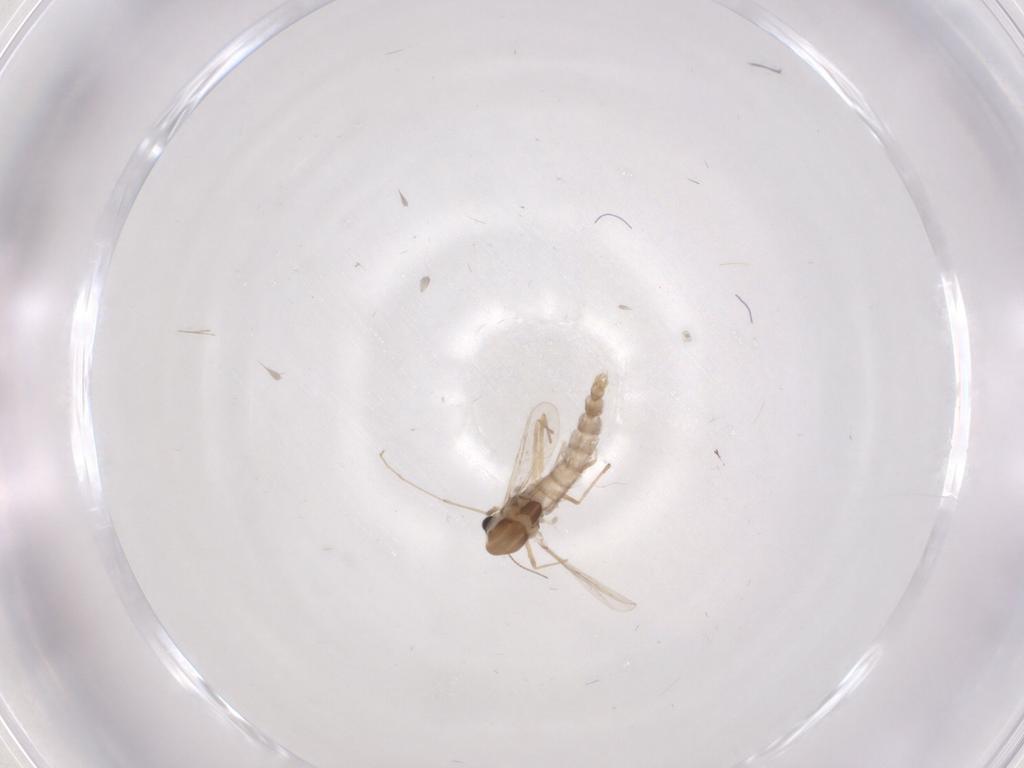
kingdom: Animalia
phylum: Arthropoda
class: Insecta
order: Diptera
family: Chironomidae
